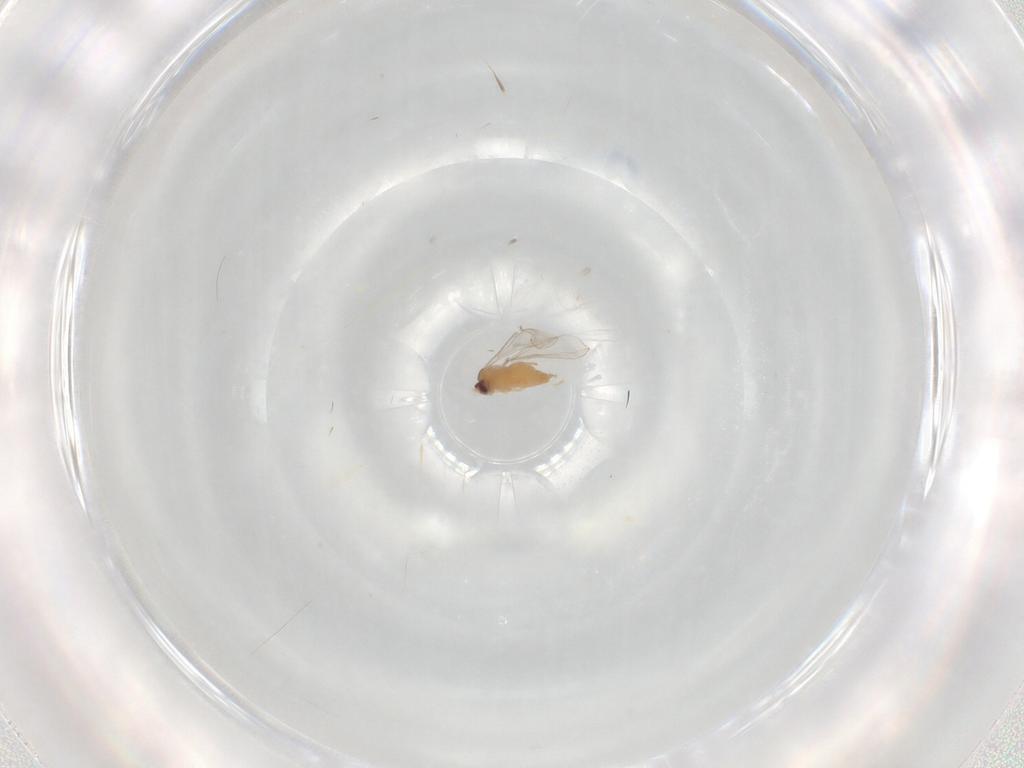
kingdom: Animalia
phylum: Arthropoda
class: Insecta
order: Diptera
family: Cecidomyiidae
